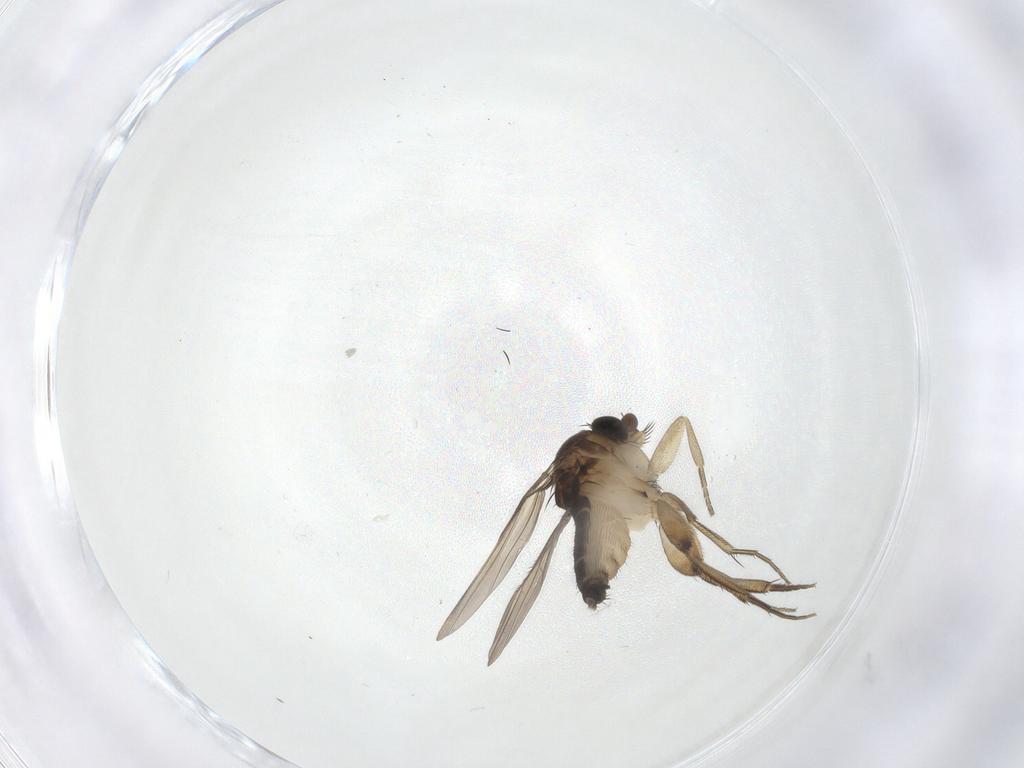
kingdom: Animalia
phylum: Arthropoda
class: Insecta
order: Diptera
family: Phoridae
